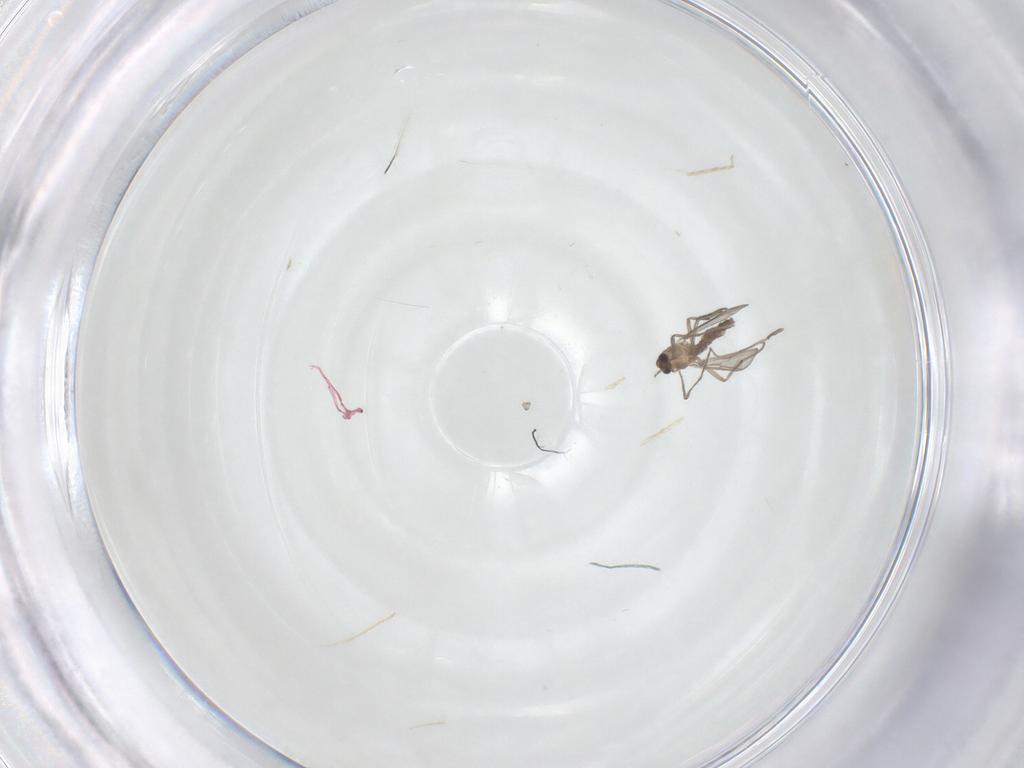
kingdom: Animalia
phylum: Arthropoda
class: Insecta
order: Diptera
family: Chironomidae
